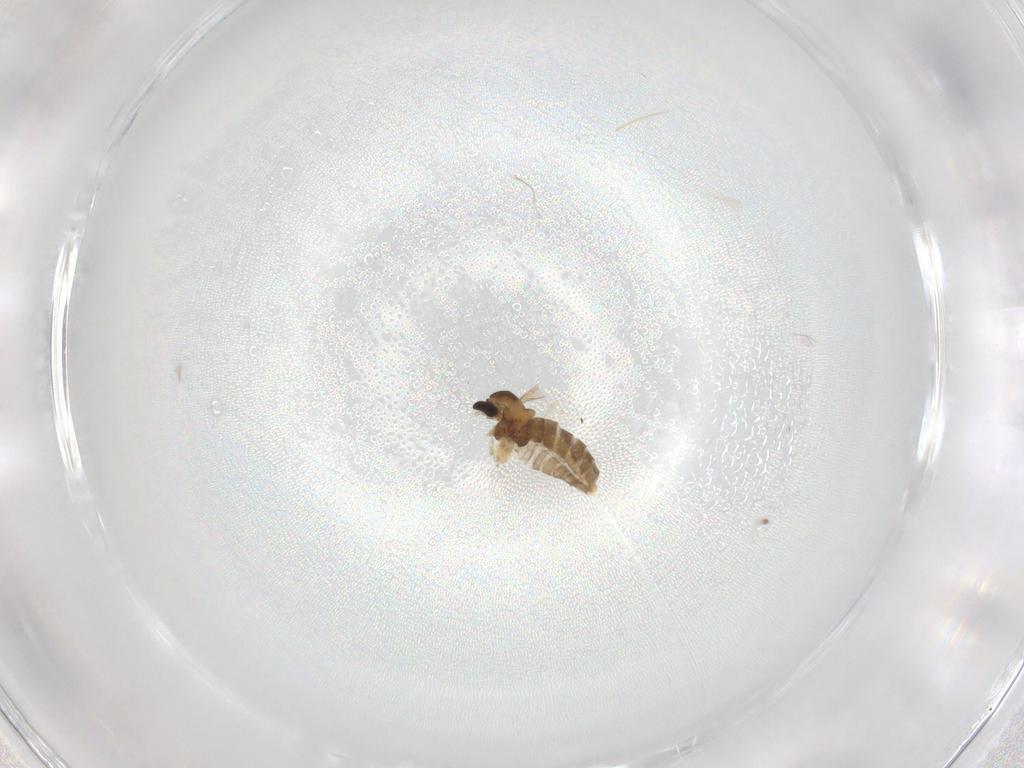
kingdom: Animalia
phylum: Arthropoda
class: Insecta
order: Diptera
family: Cecidomyiidae
